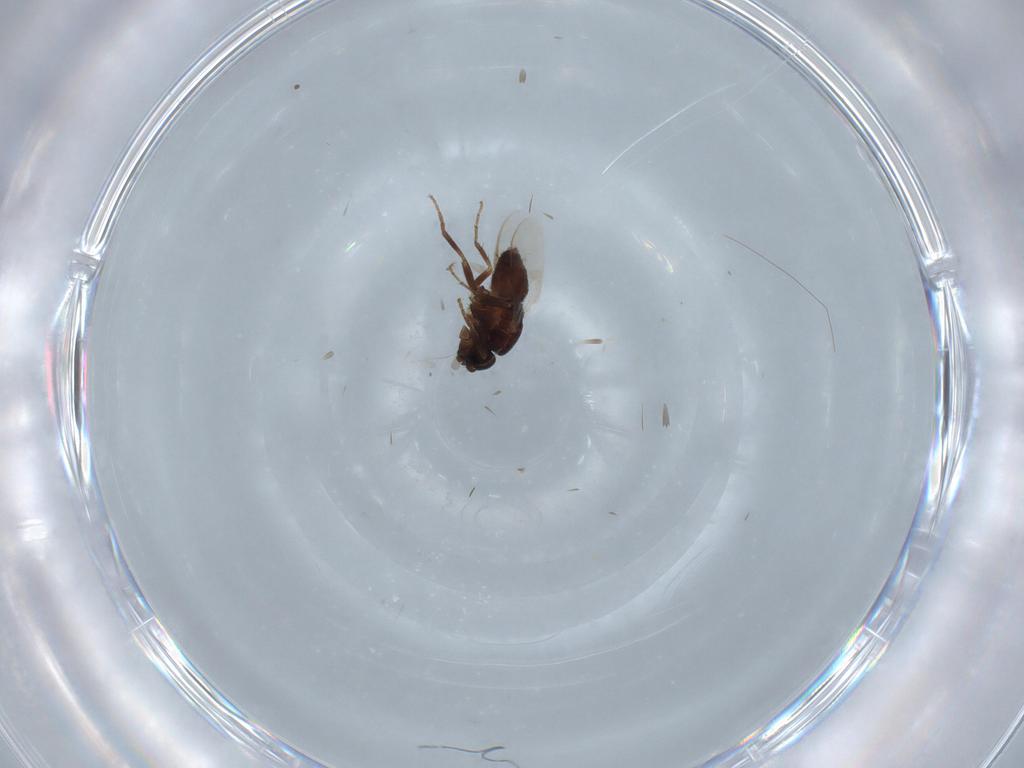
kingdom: Animalia
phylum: Arthropoda
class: Insecta
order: Diptera
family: Sphaeroceridae
